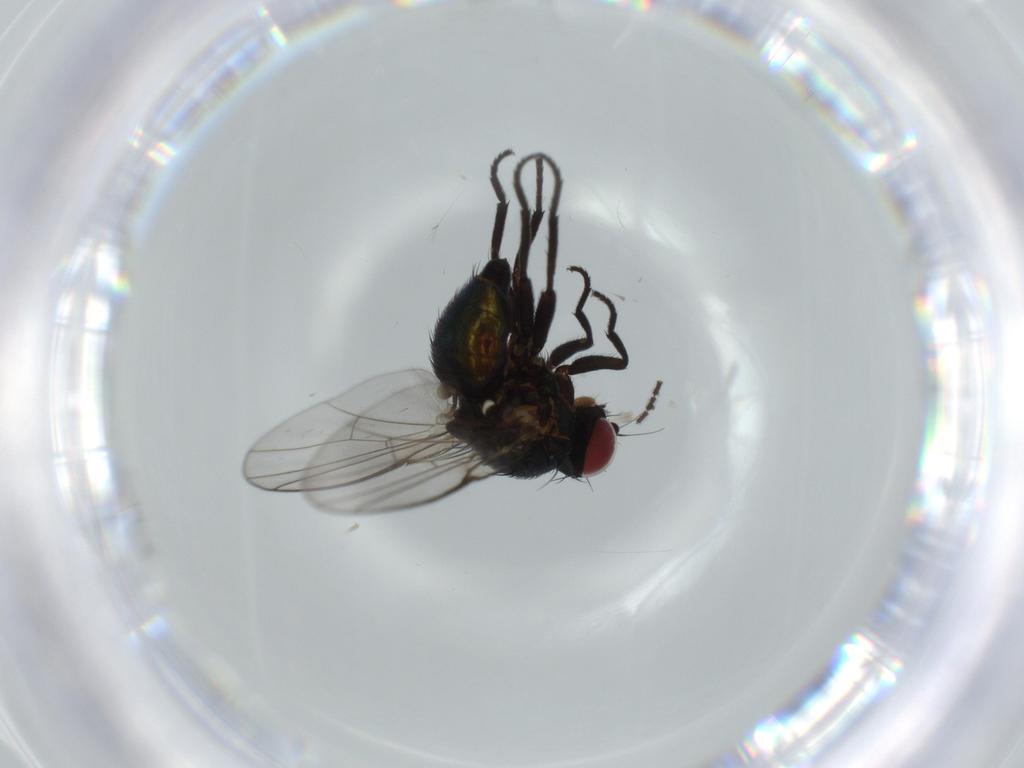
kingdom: Animalia
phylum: Arthropoda
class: Insecta
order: Diptera
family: Agromyzidae
